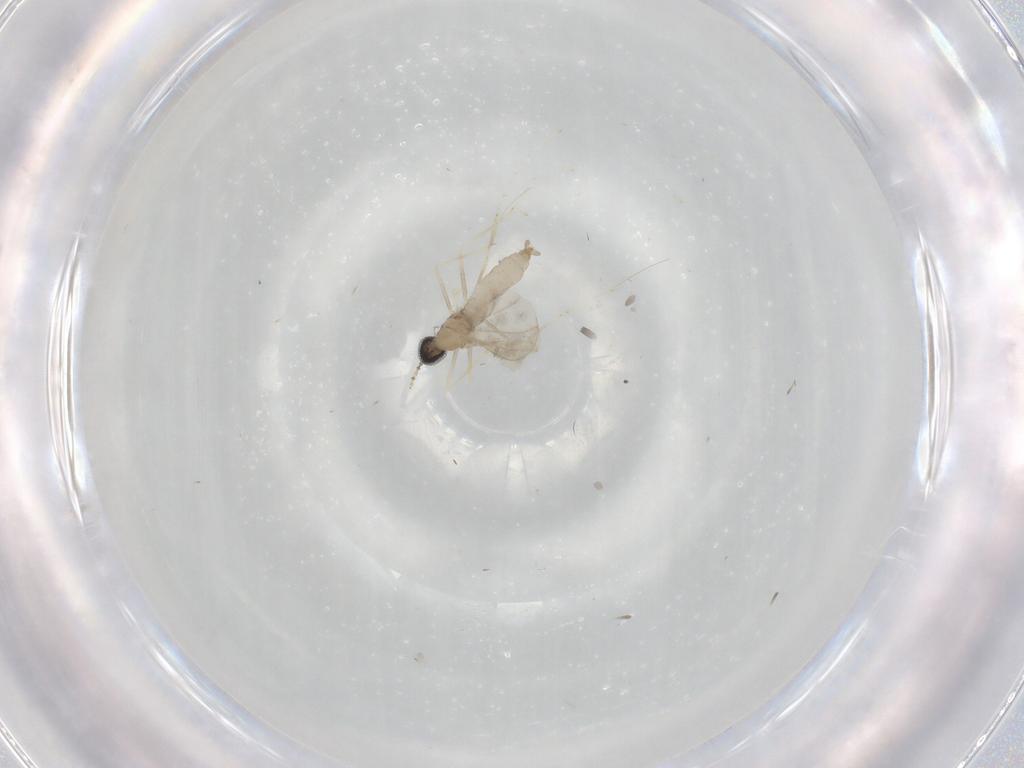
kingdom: Animalia
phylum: Arthropoda
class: Insecta
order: Diptera
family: Cecidomyiidae
